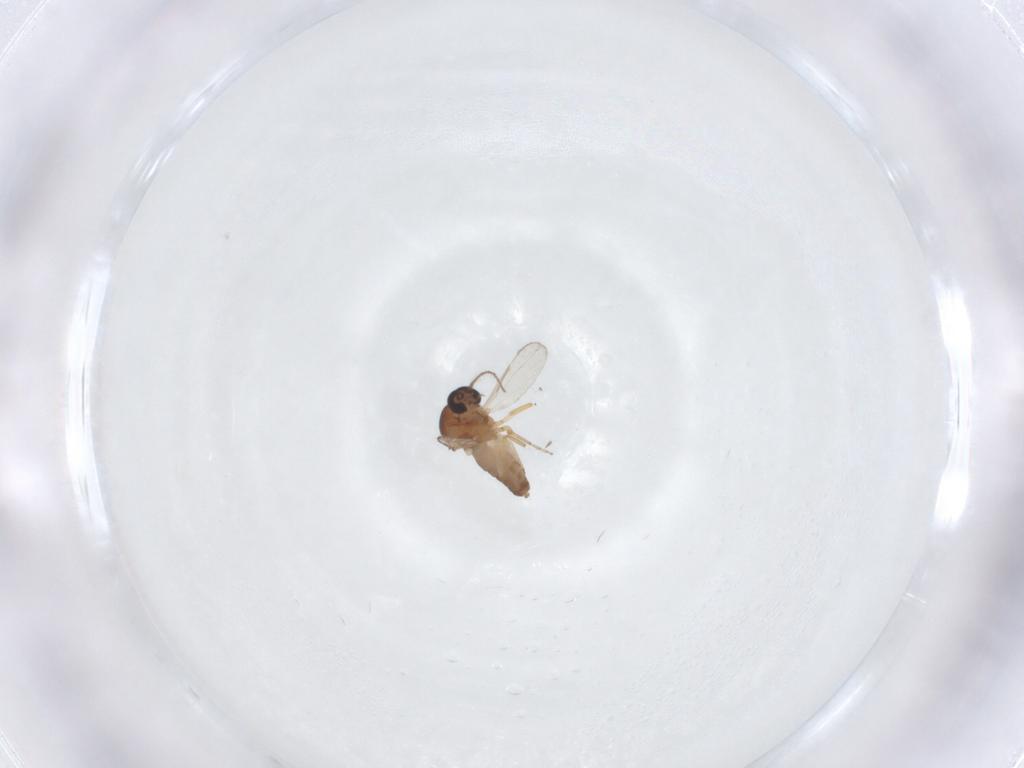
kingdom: Animalia
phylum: Arthropoda
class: Insecta
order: Diptera
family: Ceratopogonidae
